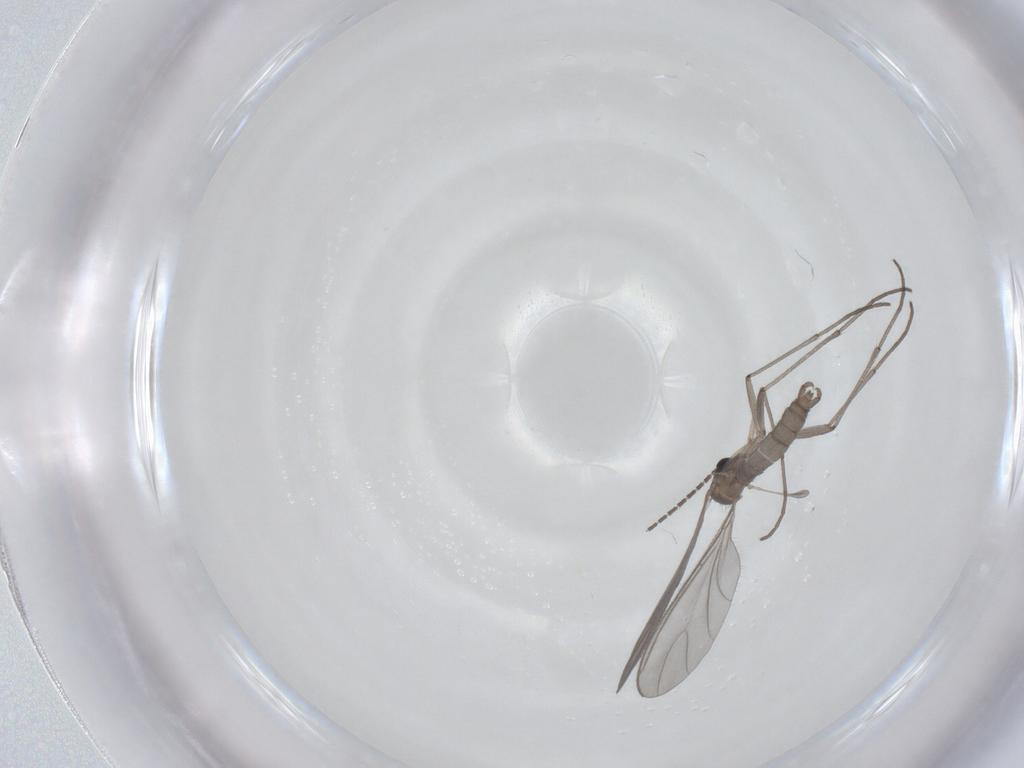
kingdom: Animalia
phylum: Arthropoda
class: Insecta
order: Diptera
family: Sciaridae
